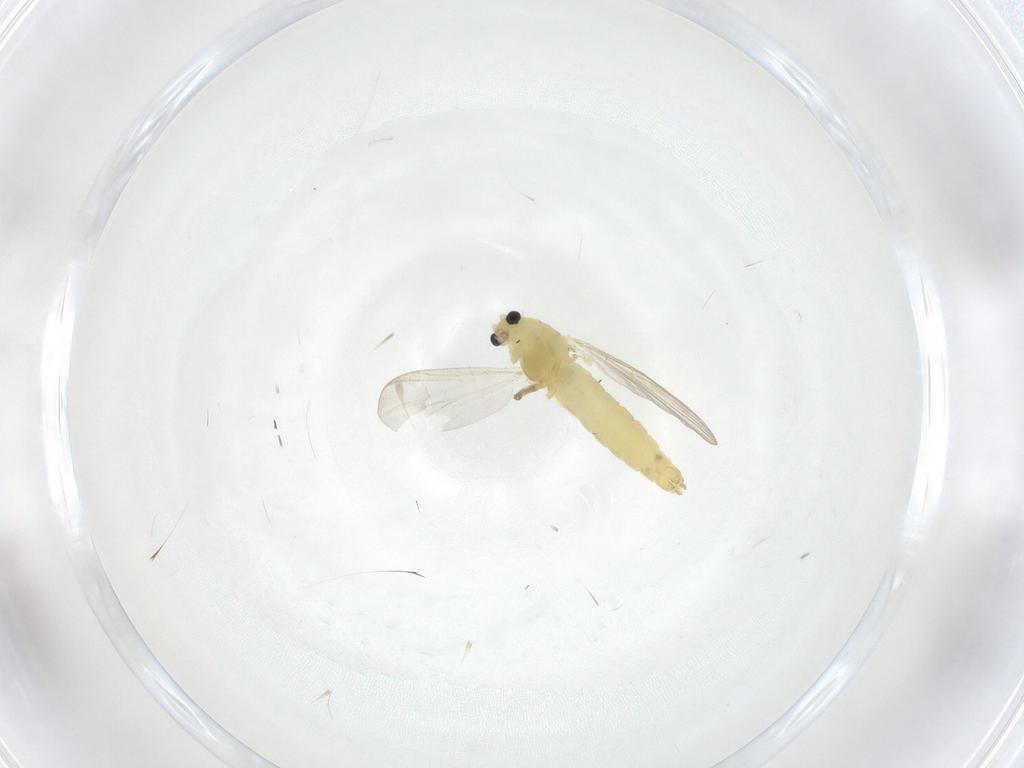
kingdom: Animalia
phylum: Arthropoda
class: Insecta
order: Diptera
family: Chironomidae
